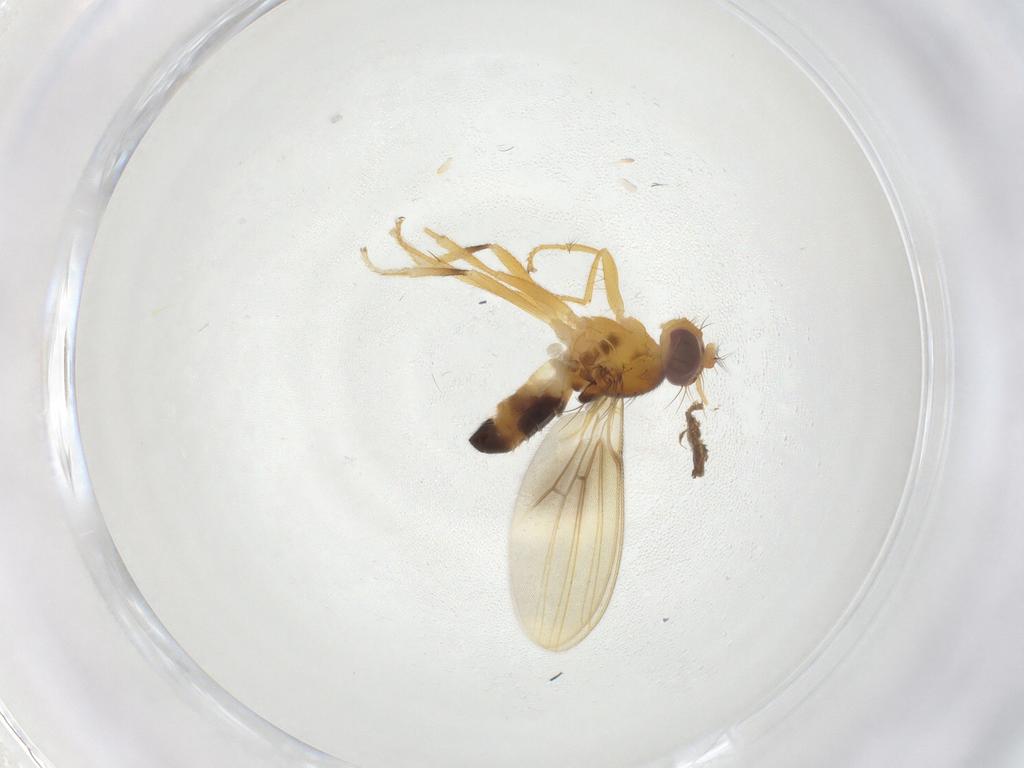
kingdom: Animalia
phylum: Arthropoda
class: Insecta
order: Diptera
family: Periscelididae
